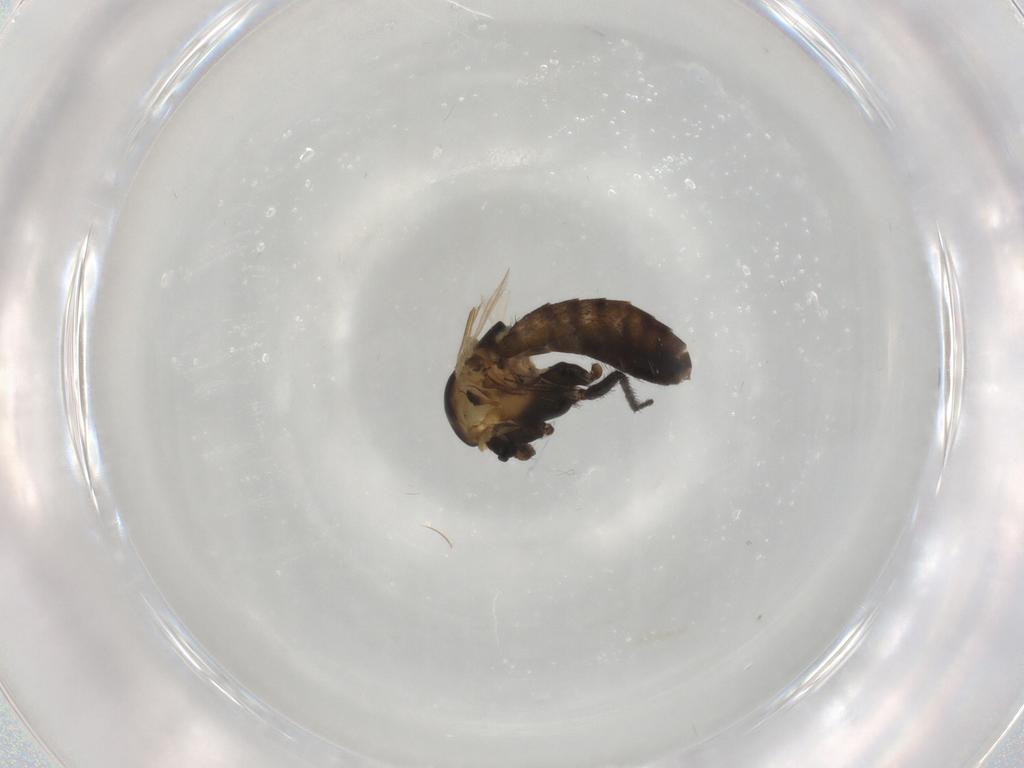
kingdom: Animalia
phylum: Arthropoda
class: Insecta
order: Diptera
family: Chironomidae
